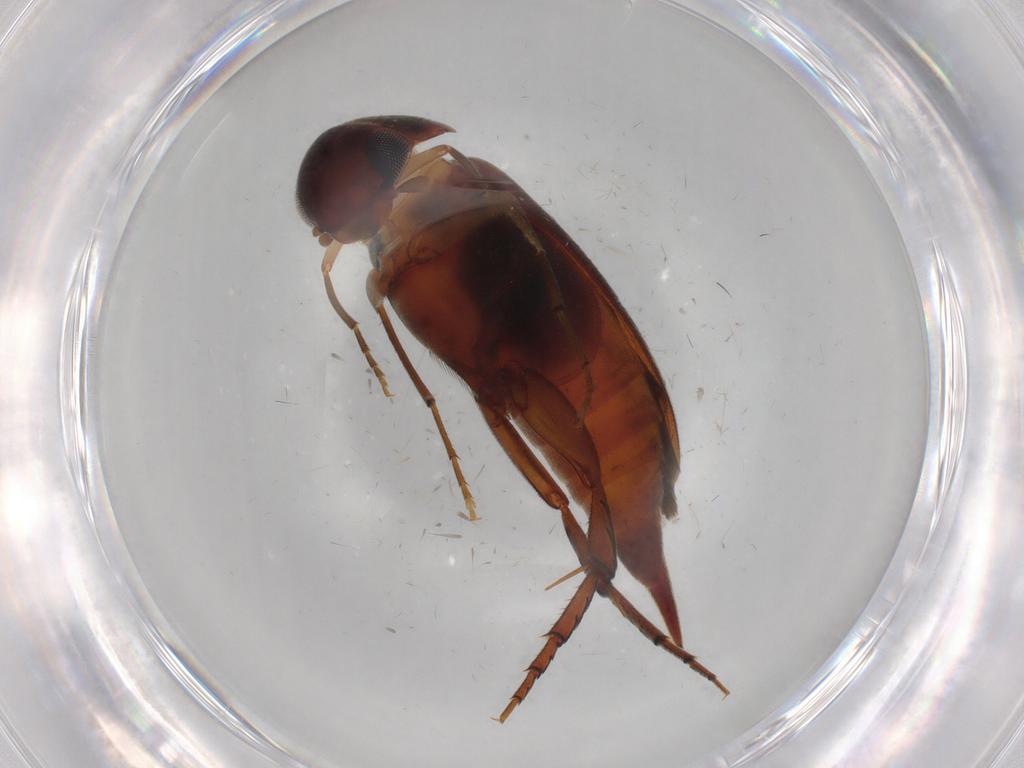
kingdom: Animalia
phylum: Arthropoda
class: Insecta
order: Coleoptera
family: Mordellidae
